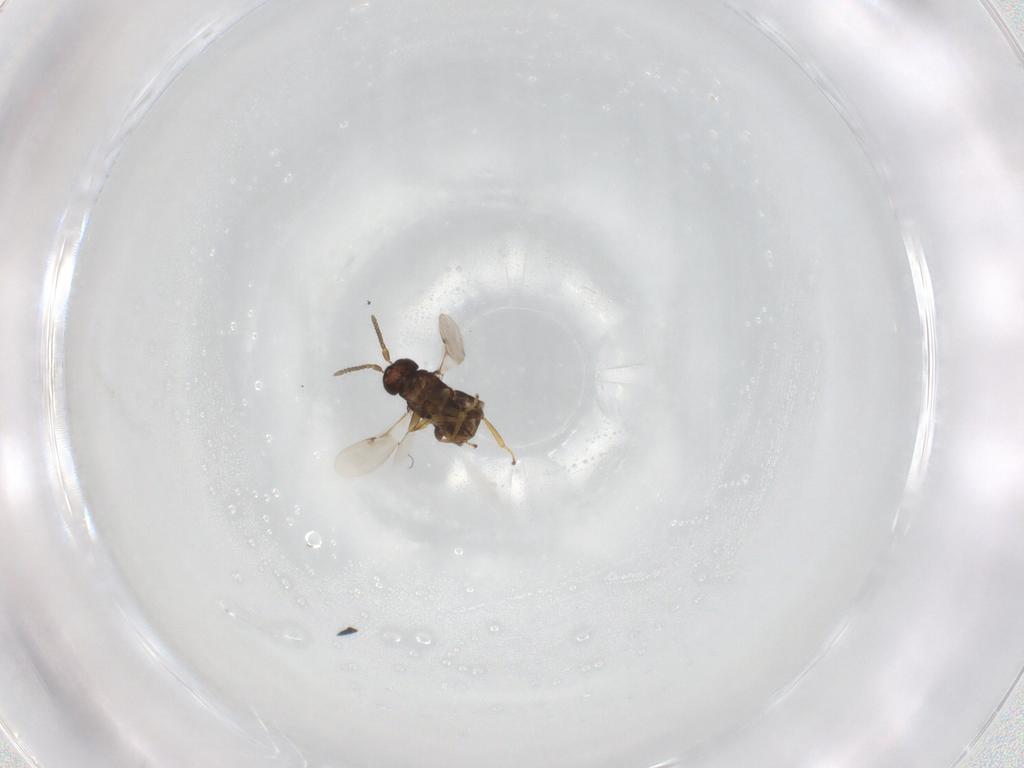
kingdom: Animalia
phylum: Arthropoda
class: Insecta
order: Hymenoptera
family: Encyrtidae
